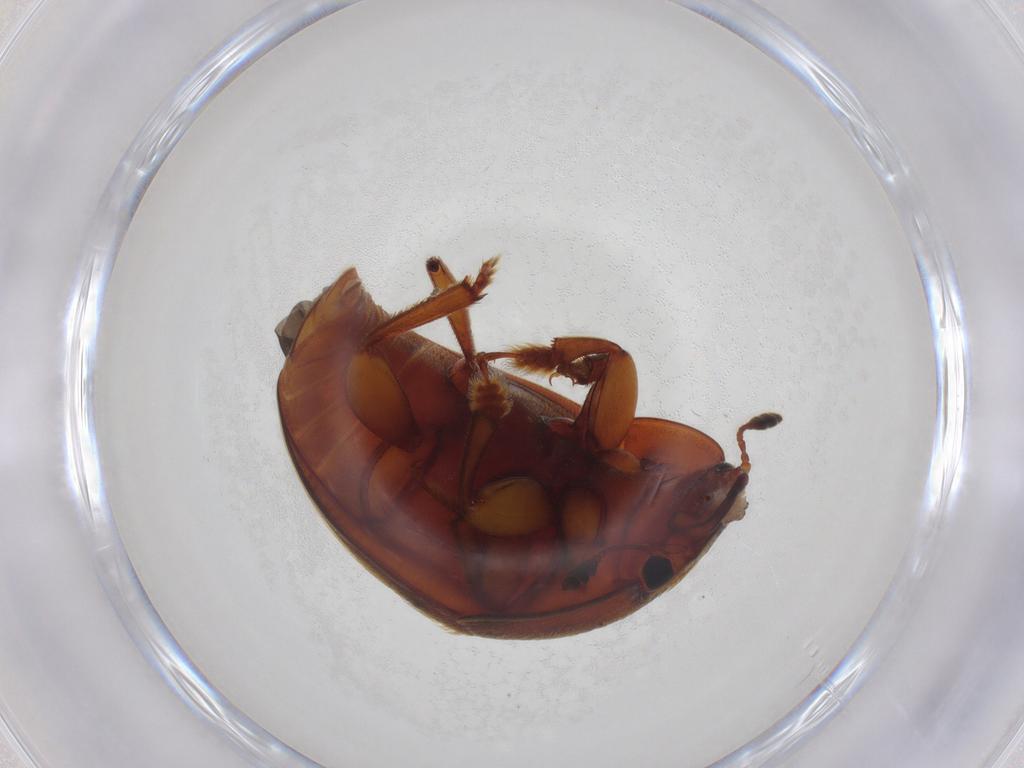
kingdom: Animalia
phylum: Arthropoda
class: Insecta
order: Coleoptera
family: Nitidulidae
